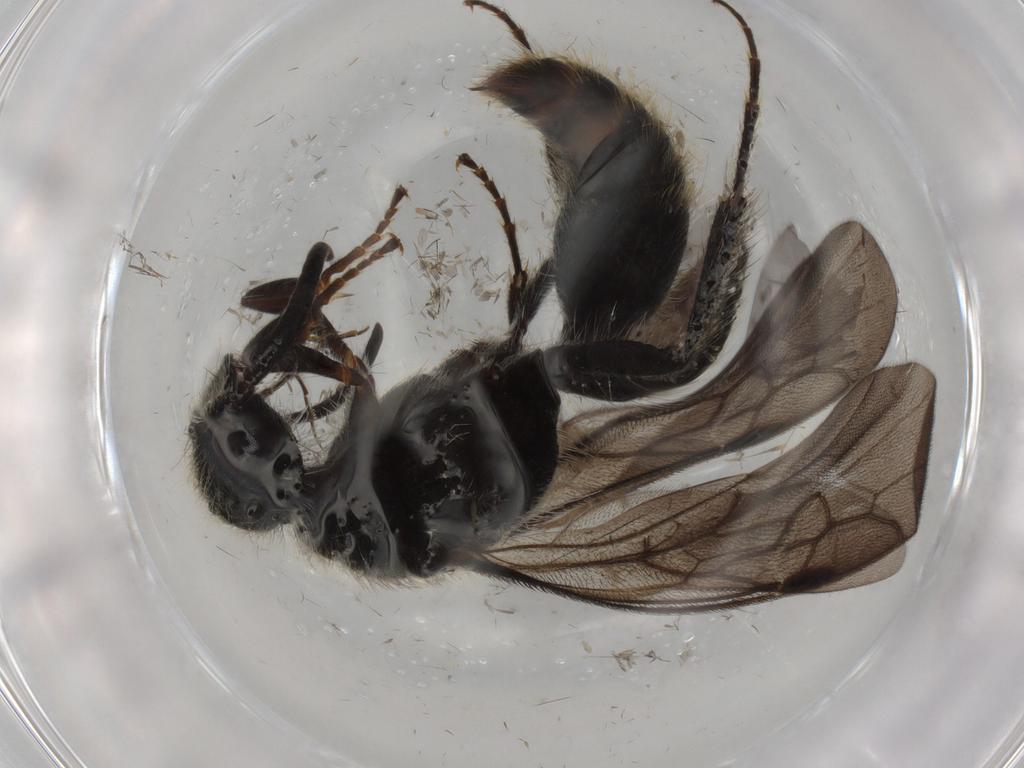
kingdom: Animalia
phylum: Arthropoda
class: Insecta
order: Hymenoptera
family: Mutillidae
